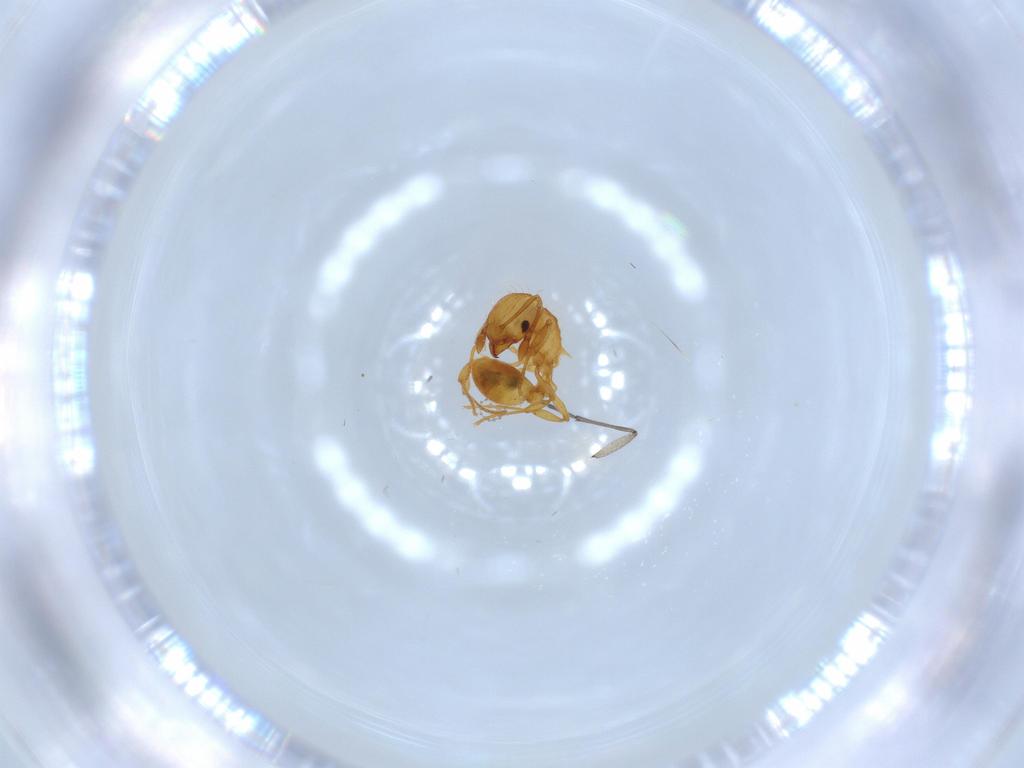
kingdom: Animalia
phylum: Arthropoda
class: Insecta
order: Hymenoptera
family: Formicidae
